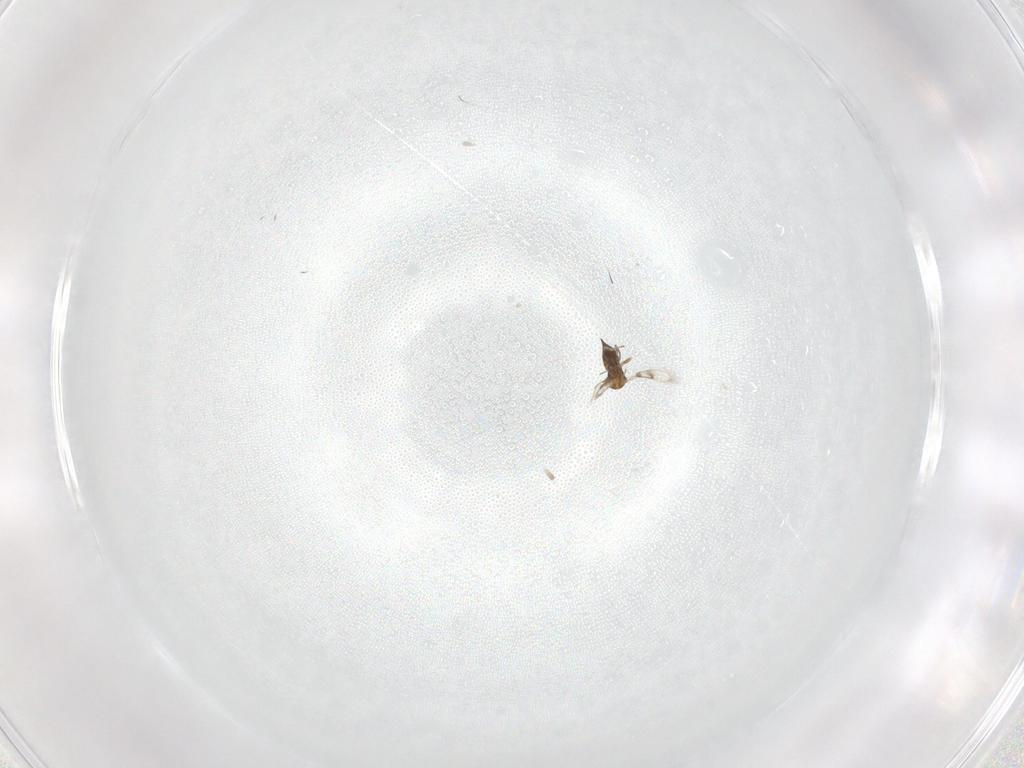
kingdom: Animalia
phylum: Arthropoda
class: Insecta
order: Hymenoptera
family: Trichogrammatidae
